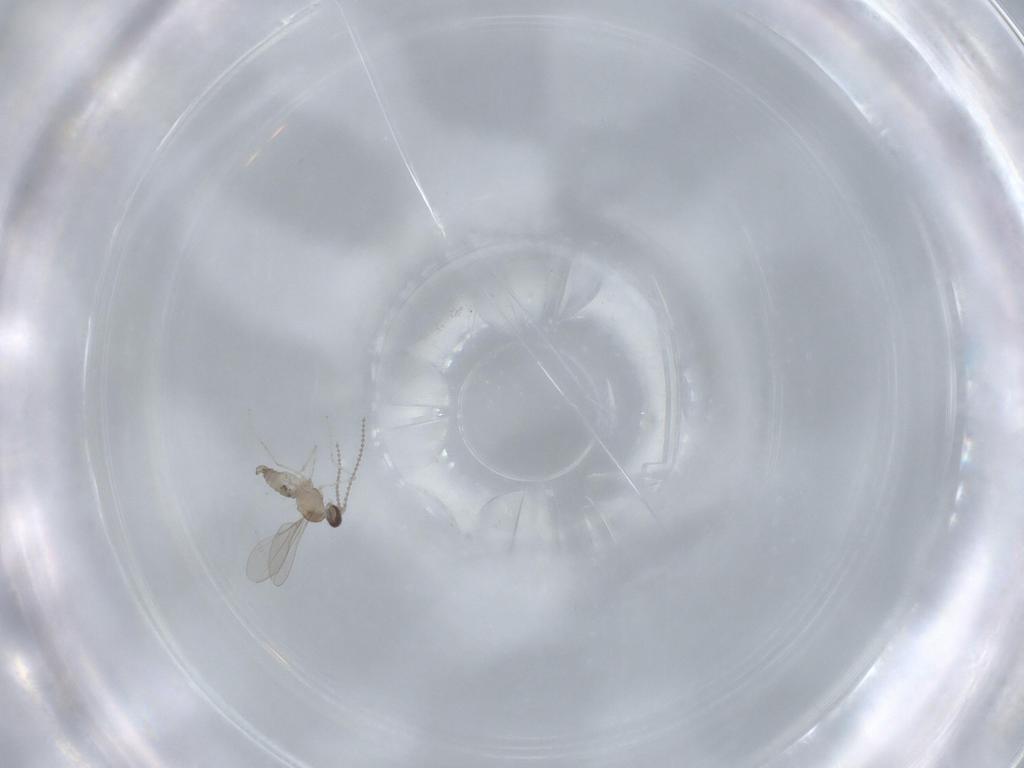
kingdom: Animalia
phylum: Arthropoda
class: Insecta
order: Diptera
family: Cecidomyiidae
